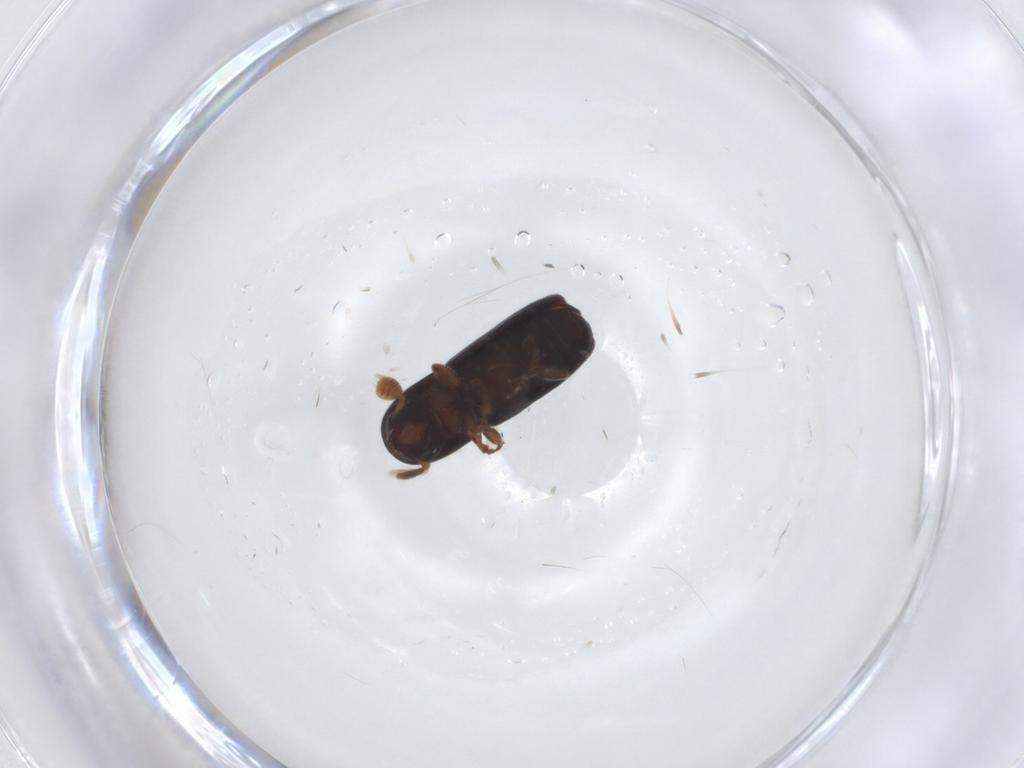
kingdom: Animalia
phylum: Arthropoda
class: Insecta
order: Coleoptera
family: Curculionidae
